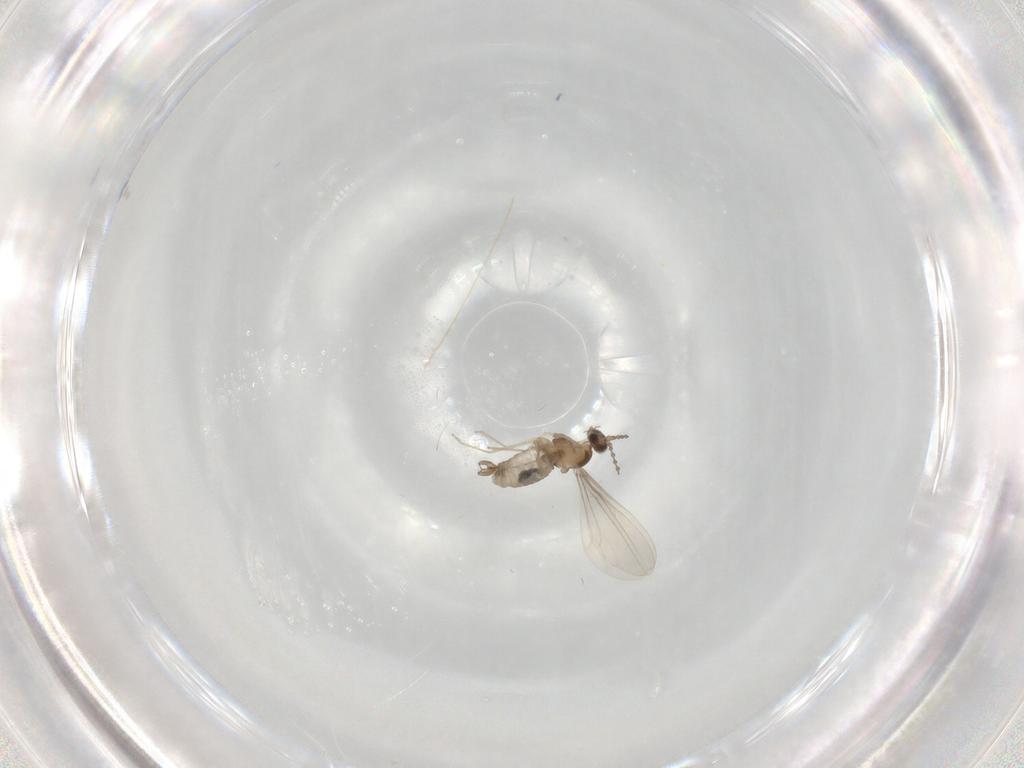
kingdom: Animalia
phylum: Arthropoda
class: Insecta
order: Diptera
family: Cecidomyiidae
